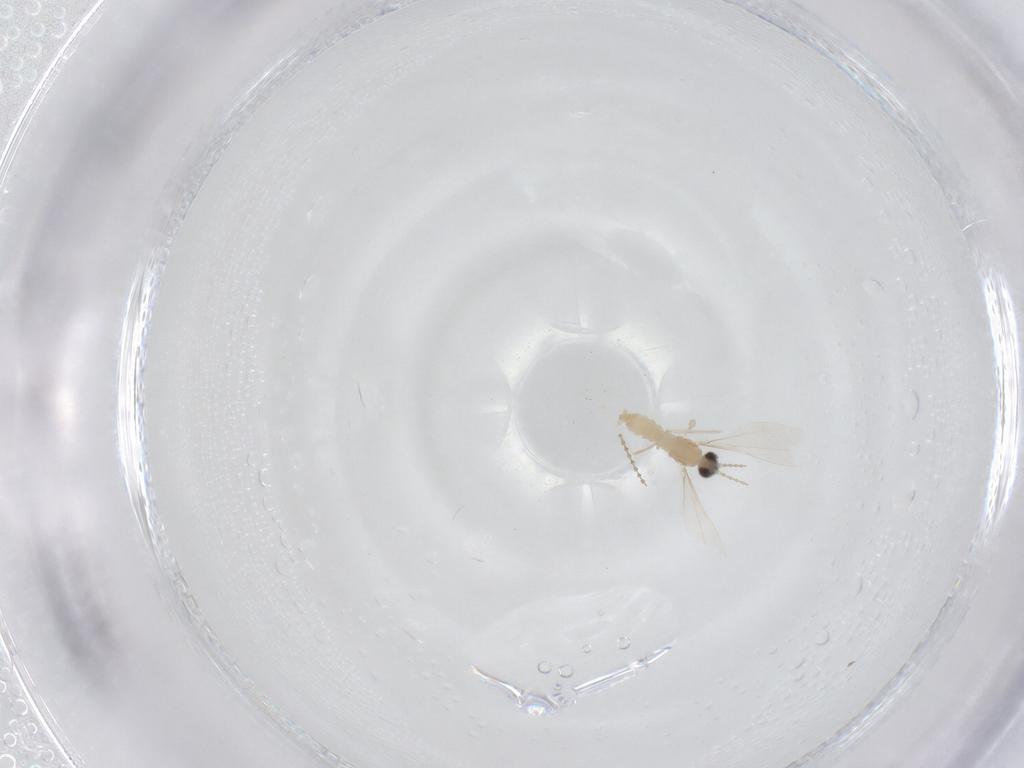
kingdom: Animalia
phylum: Arthropoda
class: Insecta
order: Diptera
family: Cecidomyiidae
